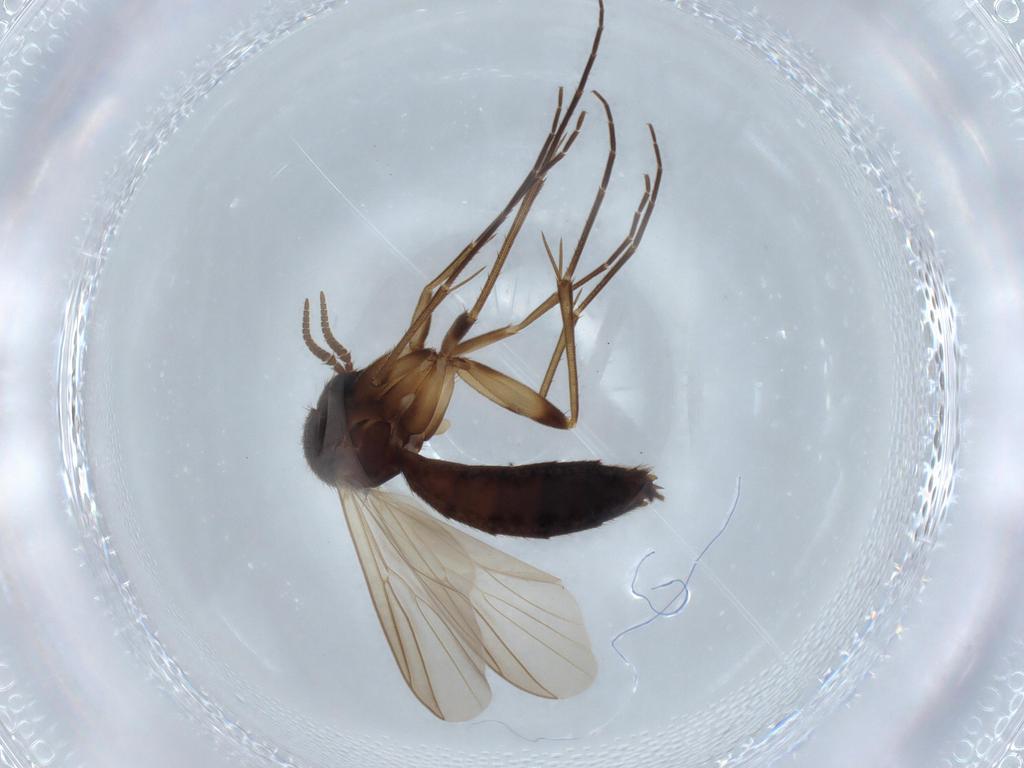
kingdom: Animalia
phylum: Arthropoda
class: Insecta
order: Diptera
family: Mycetophilidae
